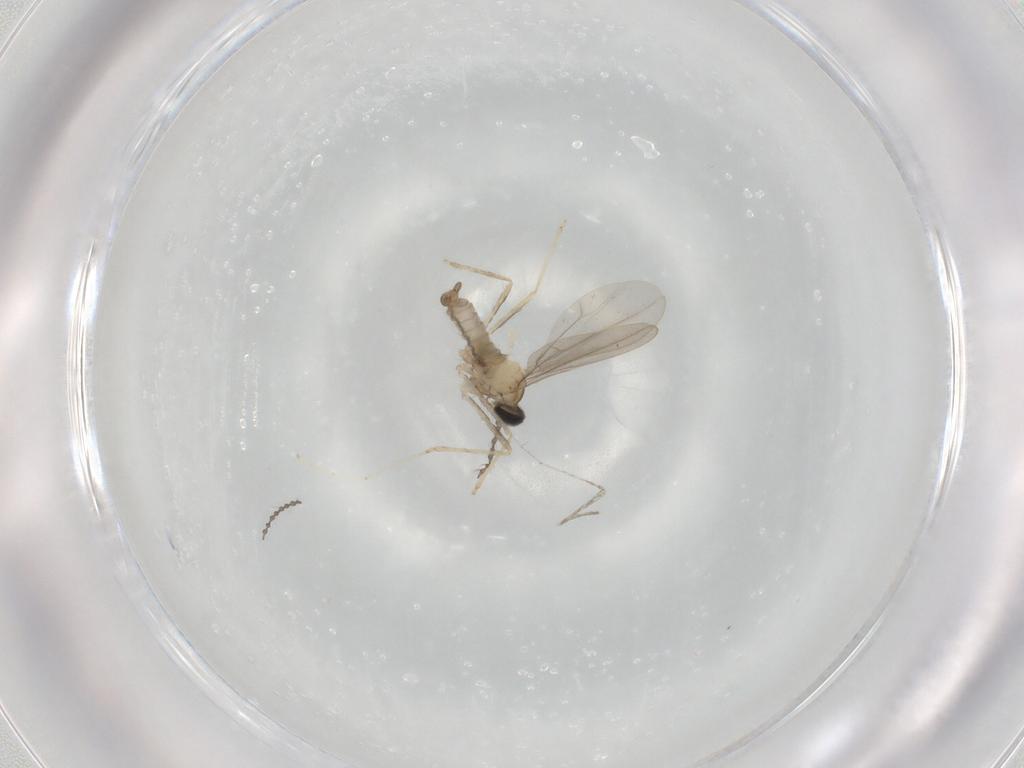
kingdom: Animalia
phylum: Arthropoda
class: Insecta
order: Diptera
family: Cecidomyiidae
